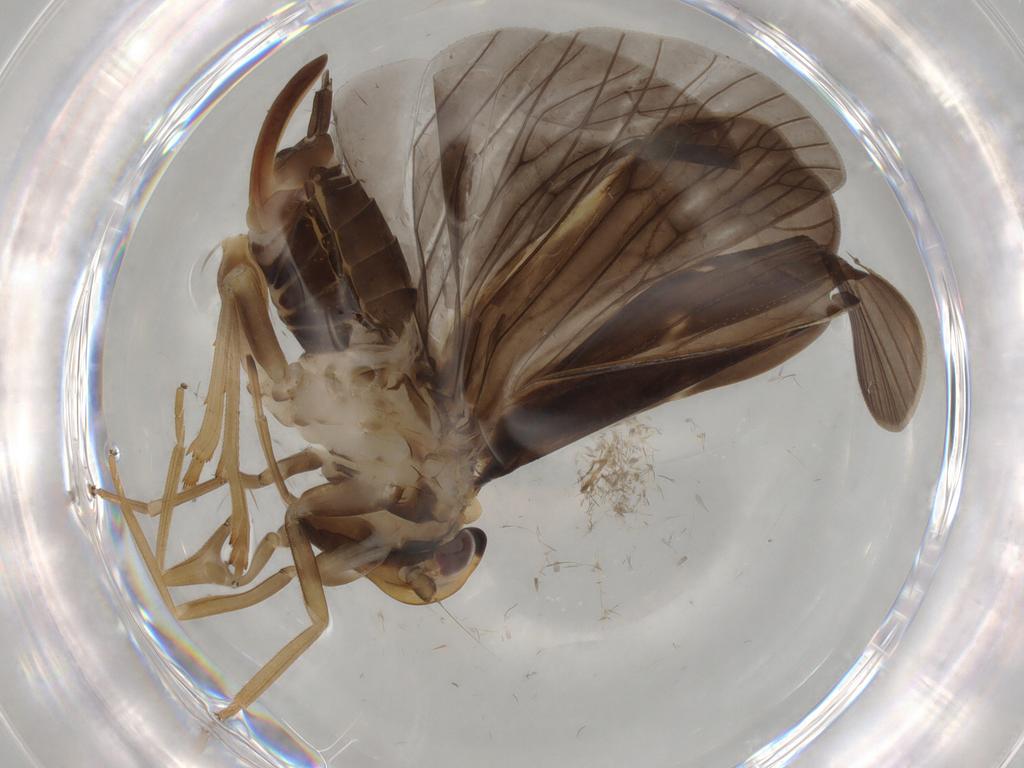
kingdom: Animalia
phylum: Arthropoda
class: Insecta
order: Hemiptera
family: Cixiidae
